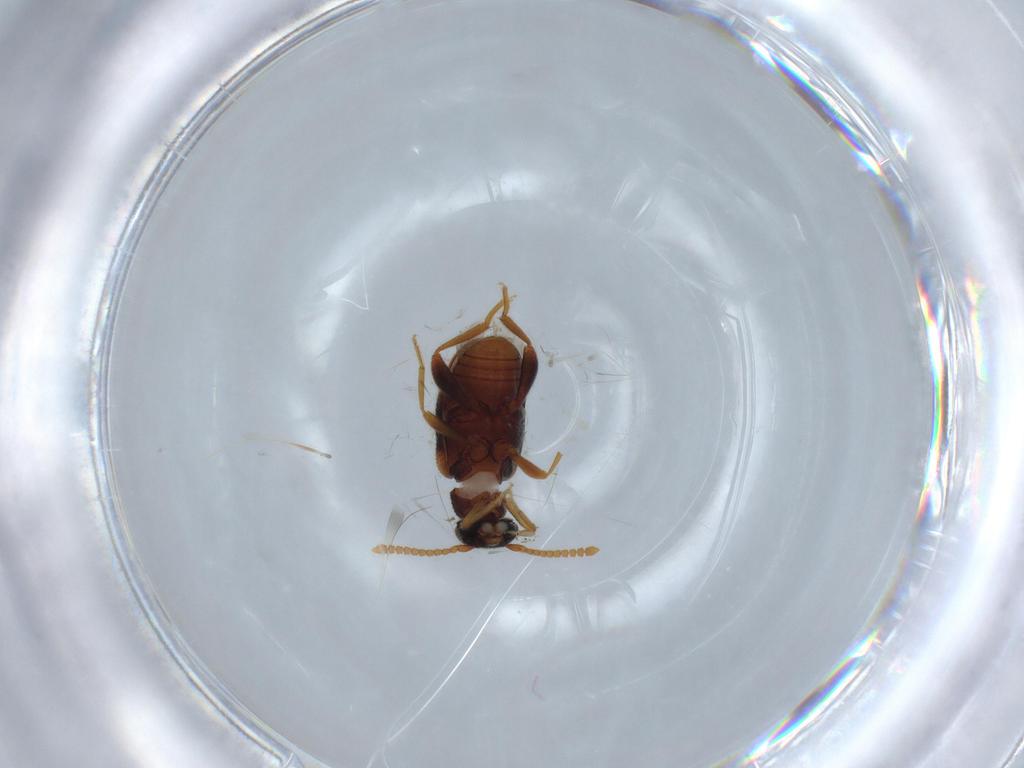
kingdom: Animalia
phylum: Arthropoda
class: Insecta
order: Coleoptera
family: Aderidae
